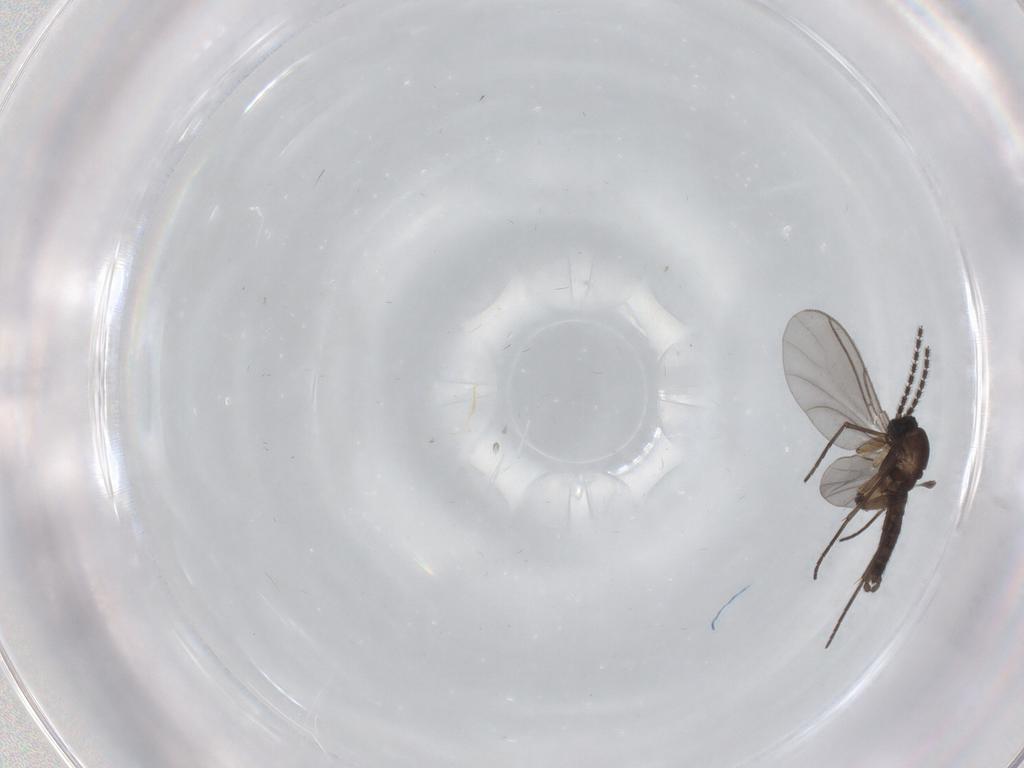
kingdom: Animalia
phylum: Arthropoda
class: Insecta
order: Diptera
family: Sciaridae
